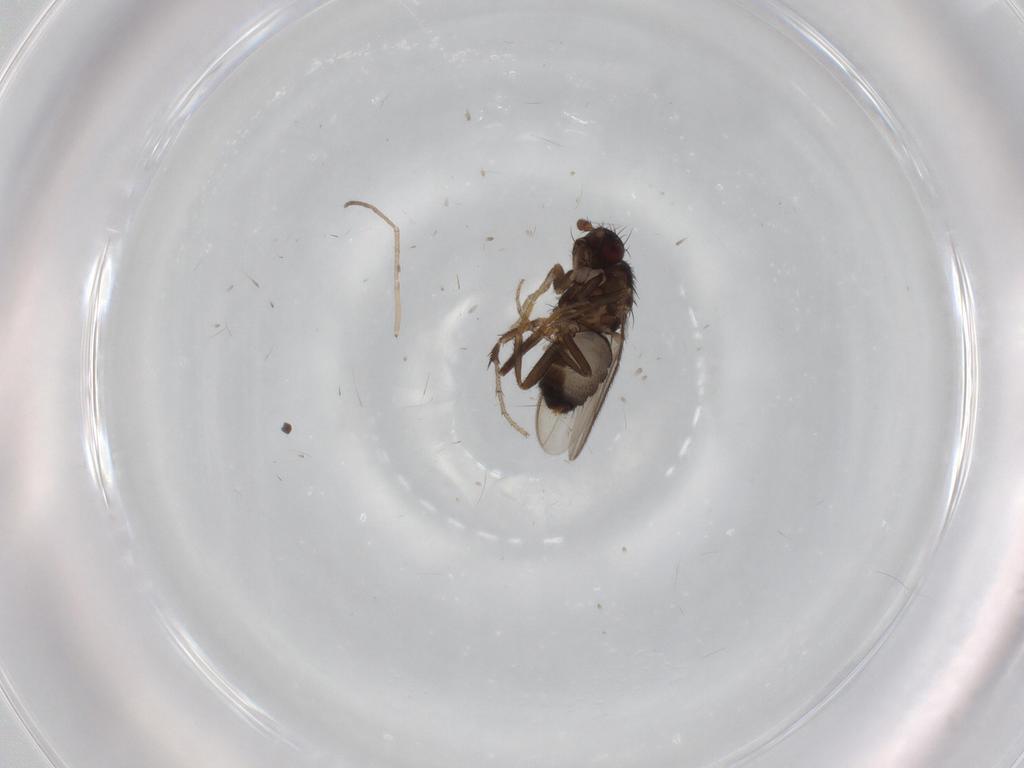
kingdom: Animalia
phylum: Arthropoda
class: Insecta
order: Diptera
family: Sphaeroceridae
